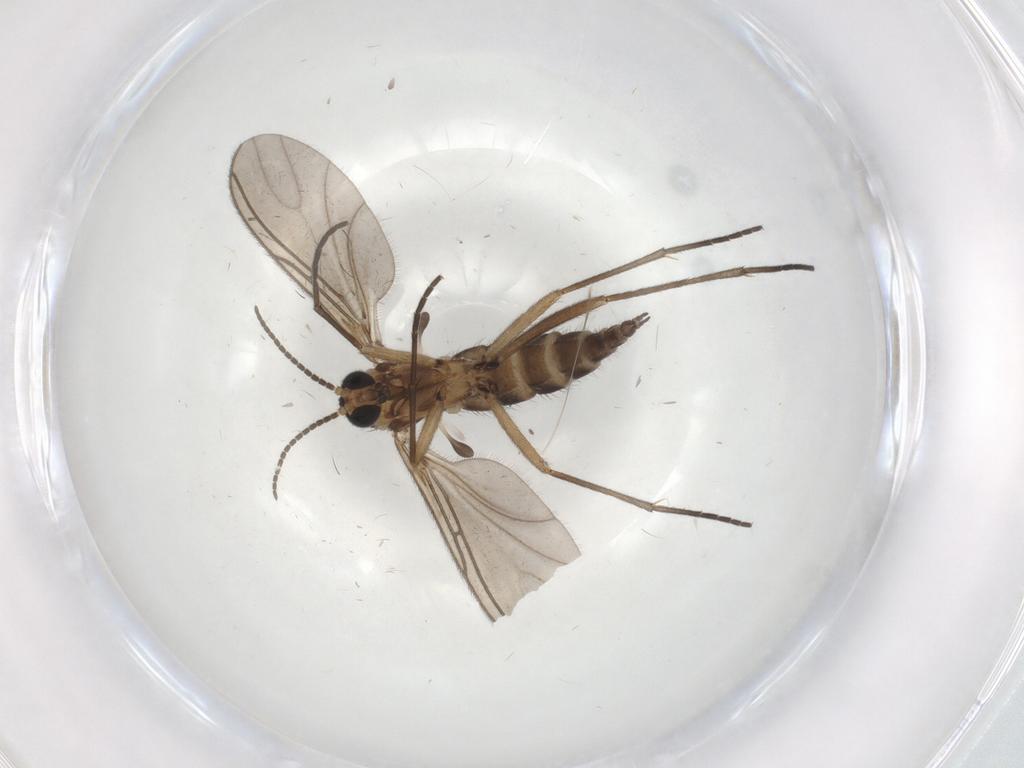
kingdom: Animalia
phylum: Arthropoda
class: Insecta
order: Diptera
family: Sciaridae
